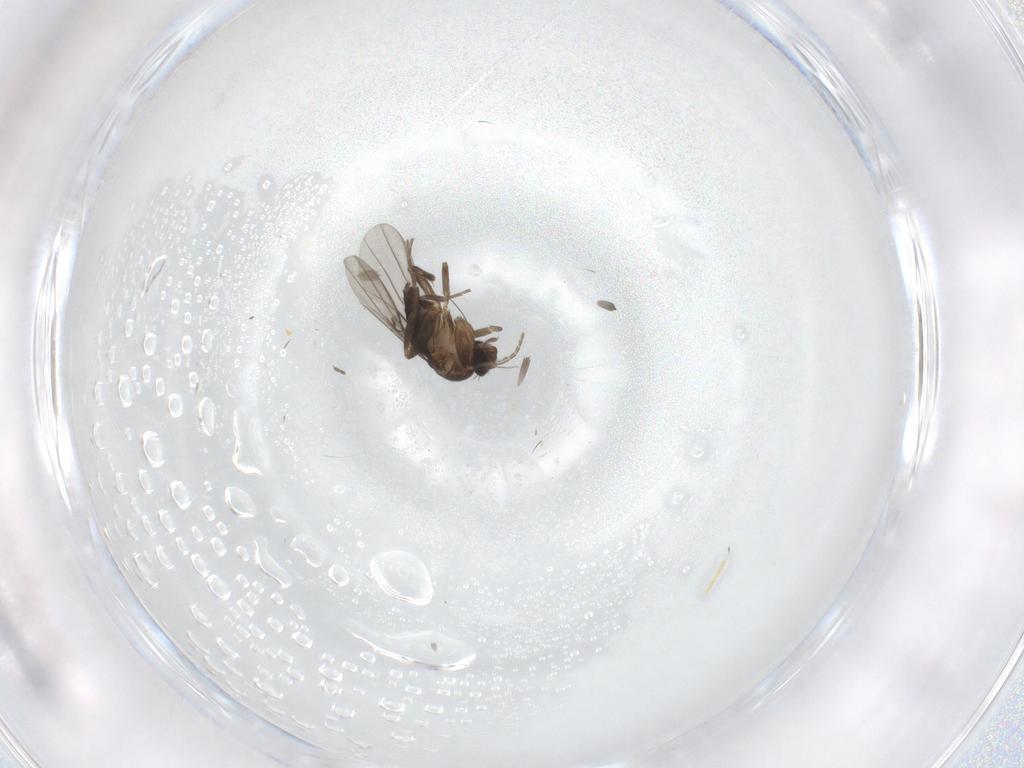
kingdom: Animalia
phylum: Arthropoda
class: Insecta
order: Diptera
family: Phoridae
